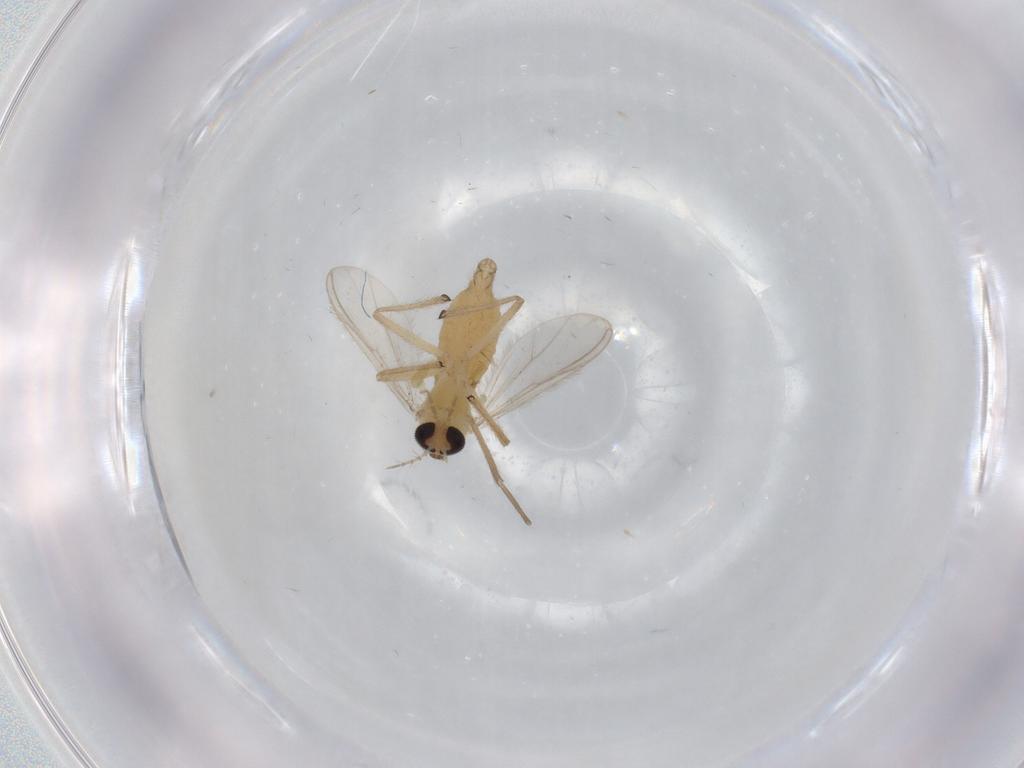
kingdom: Animalia
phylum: Arthropoda
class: Insecta
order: Diptera
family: Chironomidae
